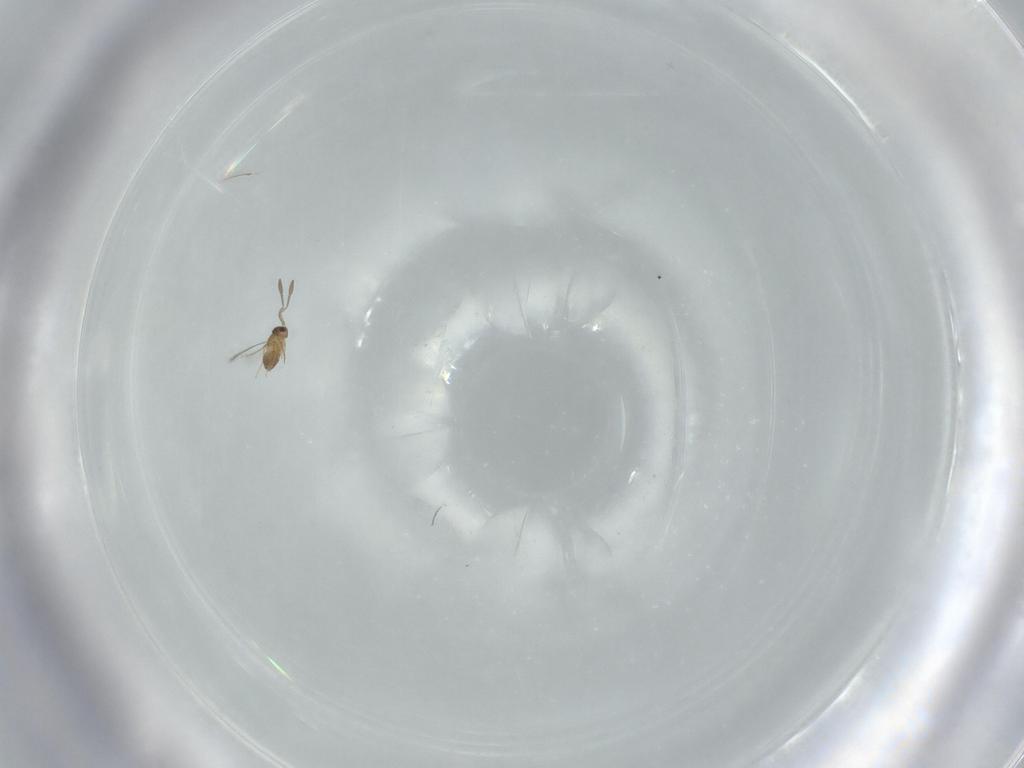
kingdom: Animalia
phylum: Arthropoda
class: Insecta
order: Hymenoptera
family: Mymaridae
